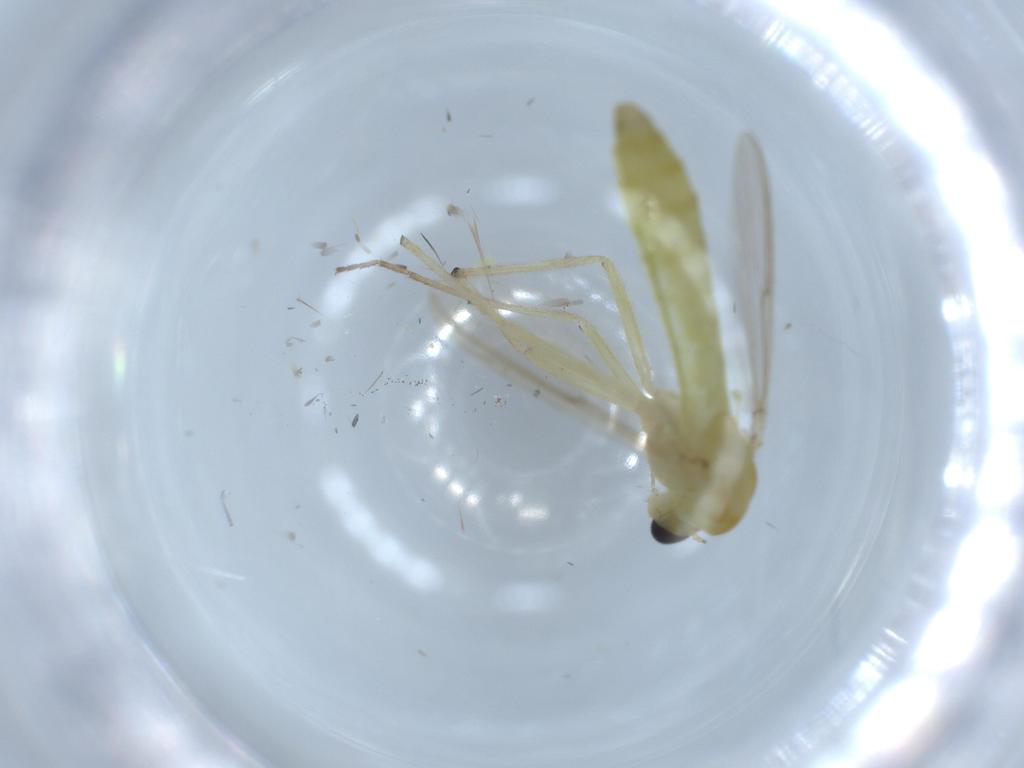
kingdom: Animalia
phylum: Arthropoda
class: Insecta
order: Diptera
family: Chironomidae
